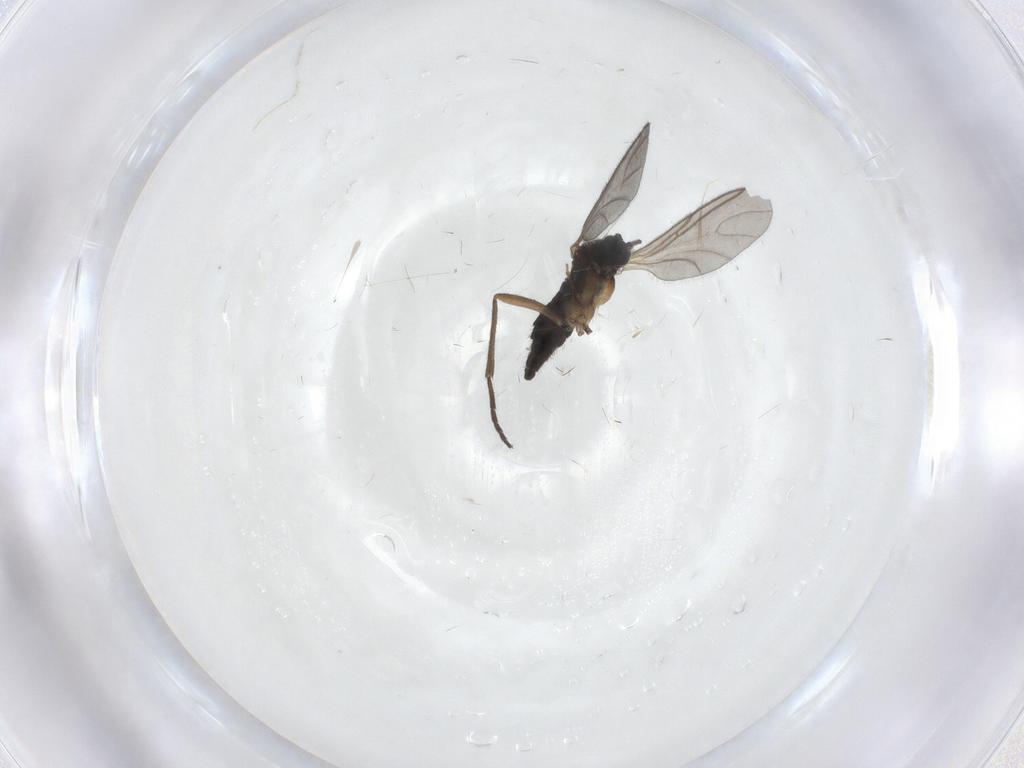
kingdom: Animalia
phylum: Arthropoda
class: Insecta
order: Diptera
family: Sciaridae
